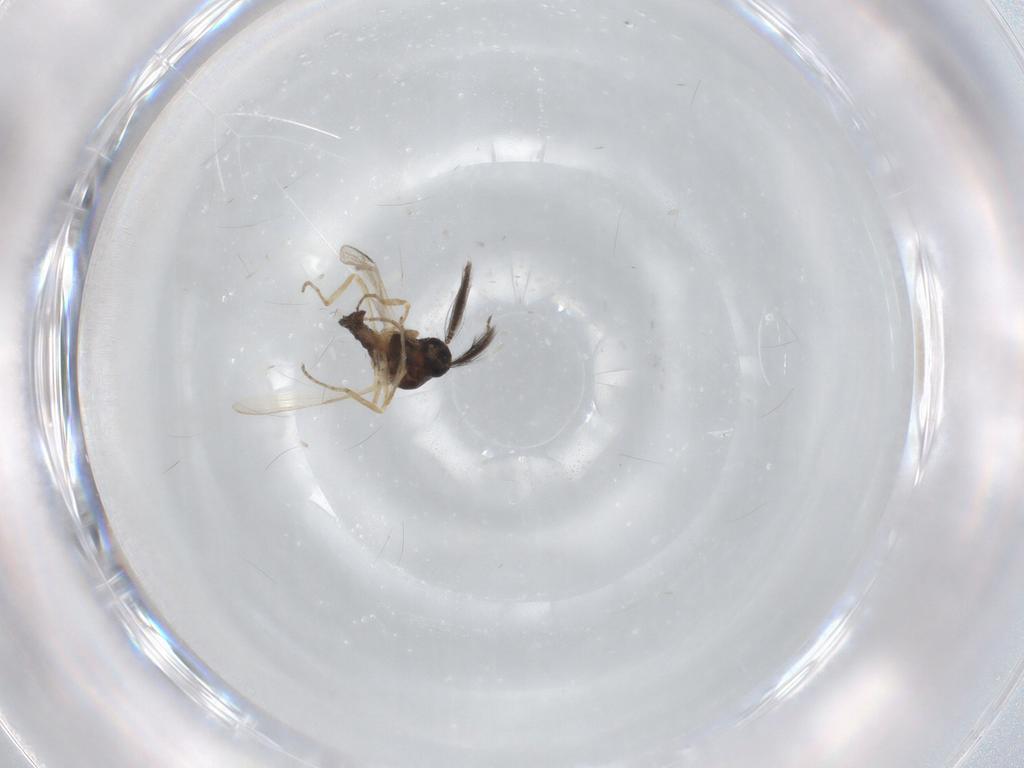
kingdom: Animalia
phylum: Arthropoda
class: Insecta
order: Diptera
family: Ceratopogonidae
